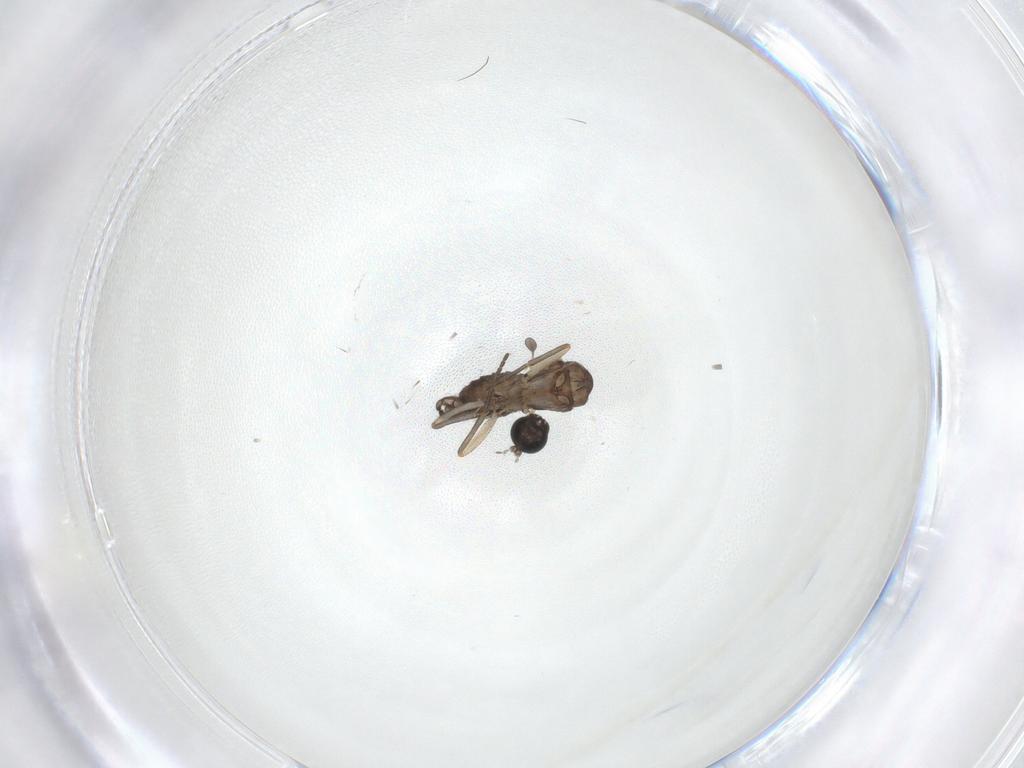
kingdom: Animalia
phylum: Arthropoda
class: Insecta
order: Diptera
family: Sciaridae
